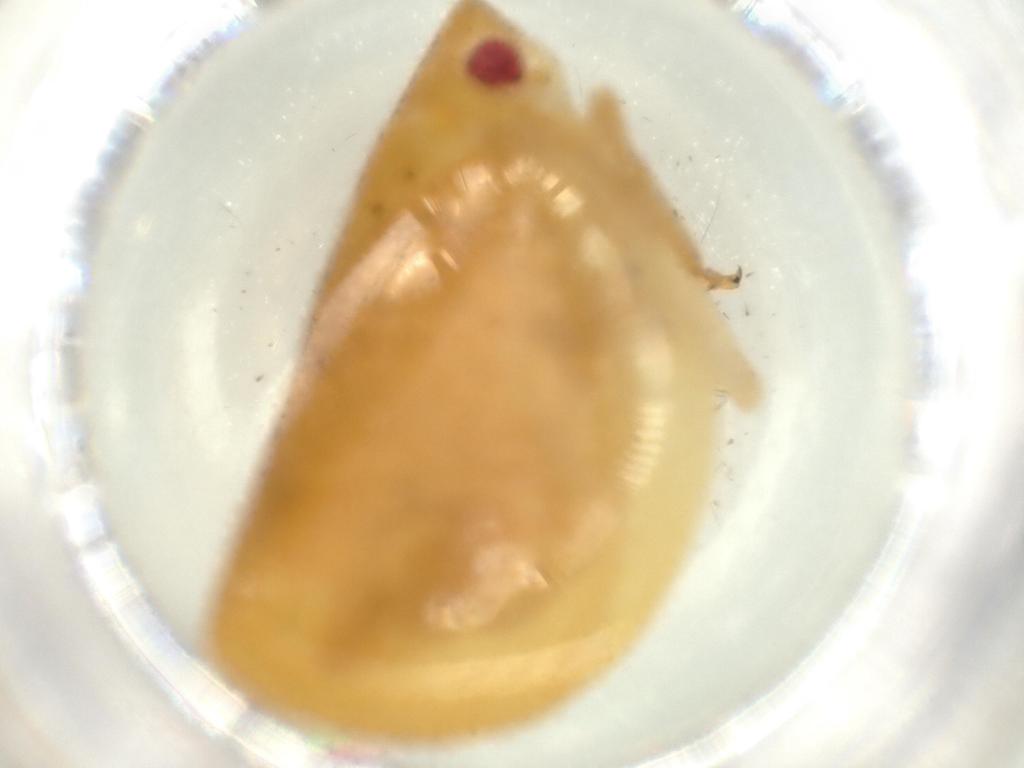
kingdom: Animalia
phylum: Arthropoda
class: Insecta
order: Hemiptera
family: Acanaloniidae
